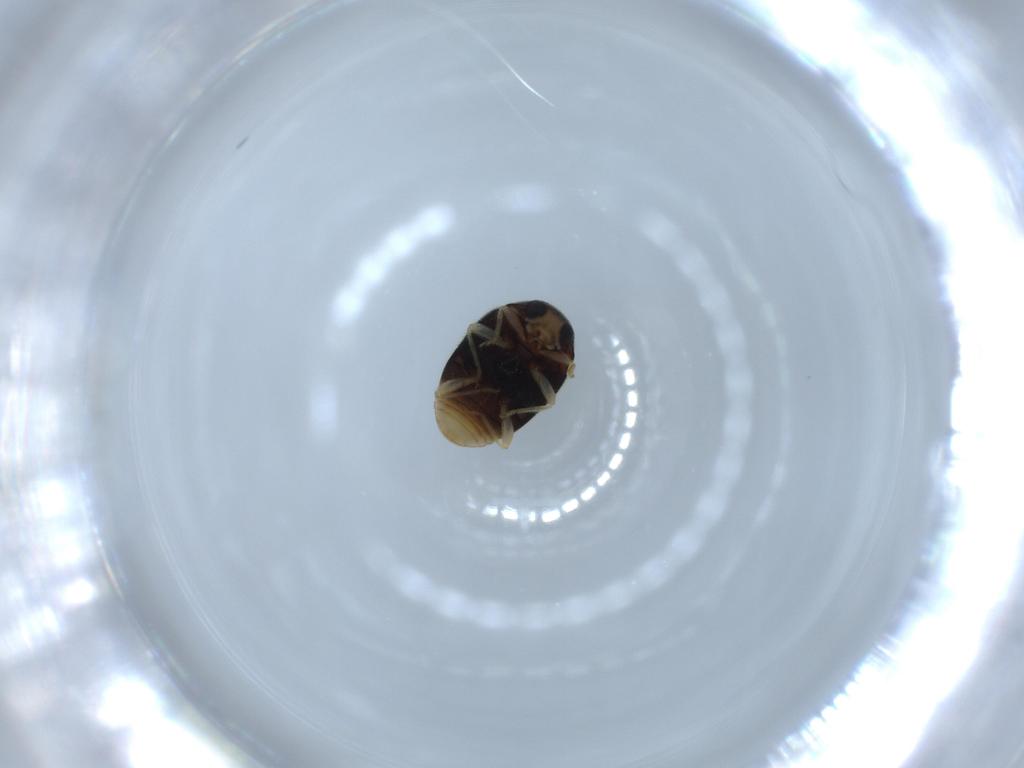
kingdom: Animalia
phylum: Arthropoda
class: Insecta
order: Coleoptera
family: Coccinellidae
